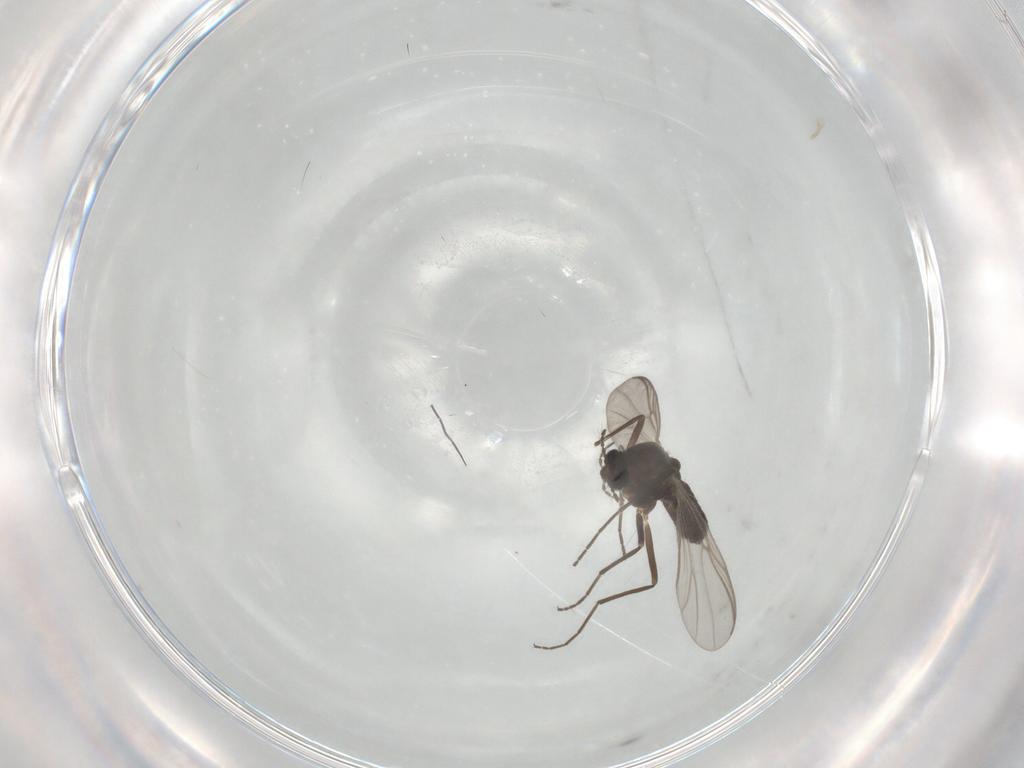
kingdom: Animalia
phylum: Arthropoda
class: Insecta
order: Diptera
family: Chironomidae
